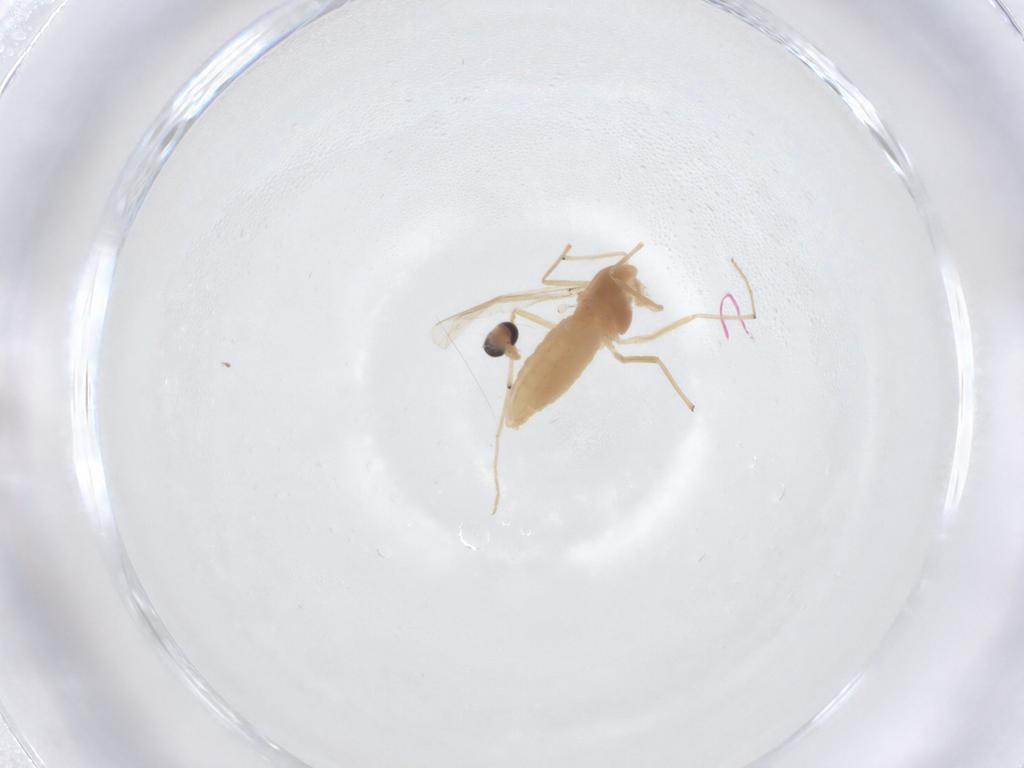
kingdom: Animalia
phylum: Arthropoda
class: Insecta
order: Diptera
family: Chironomidae
